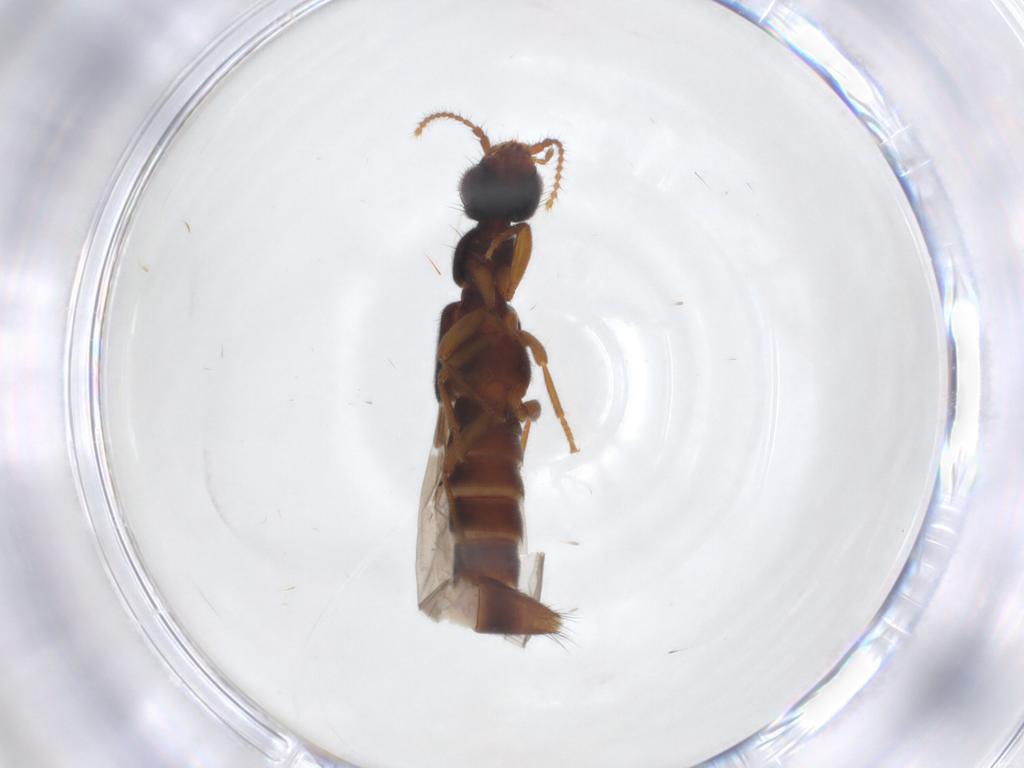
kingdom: Animalia
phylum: Arthropoda
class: Insecta
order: Coleoptera
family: Staphylinidae
